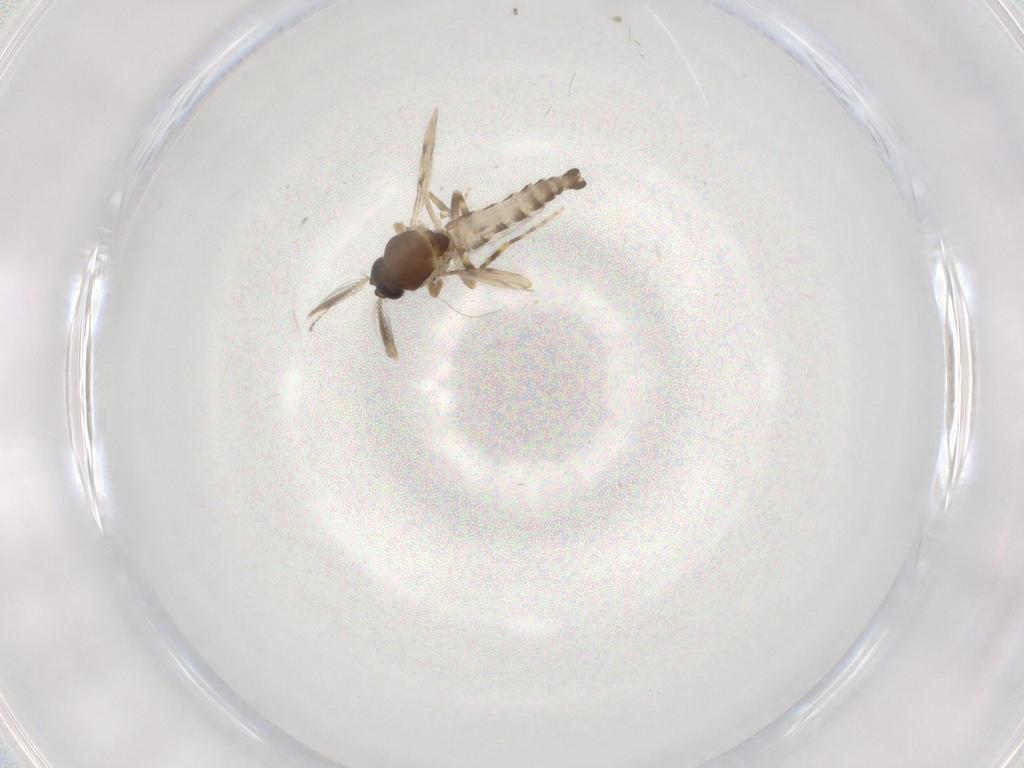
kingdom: Animalia
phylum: Arthropoda
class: Insecta
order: Diptera
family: Ceratopogonidae
